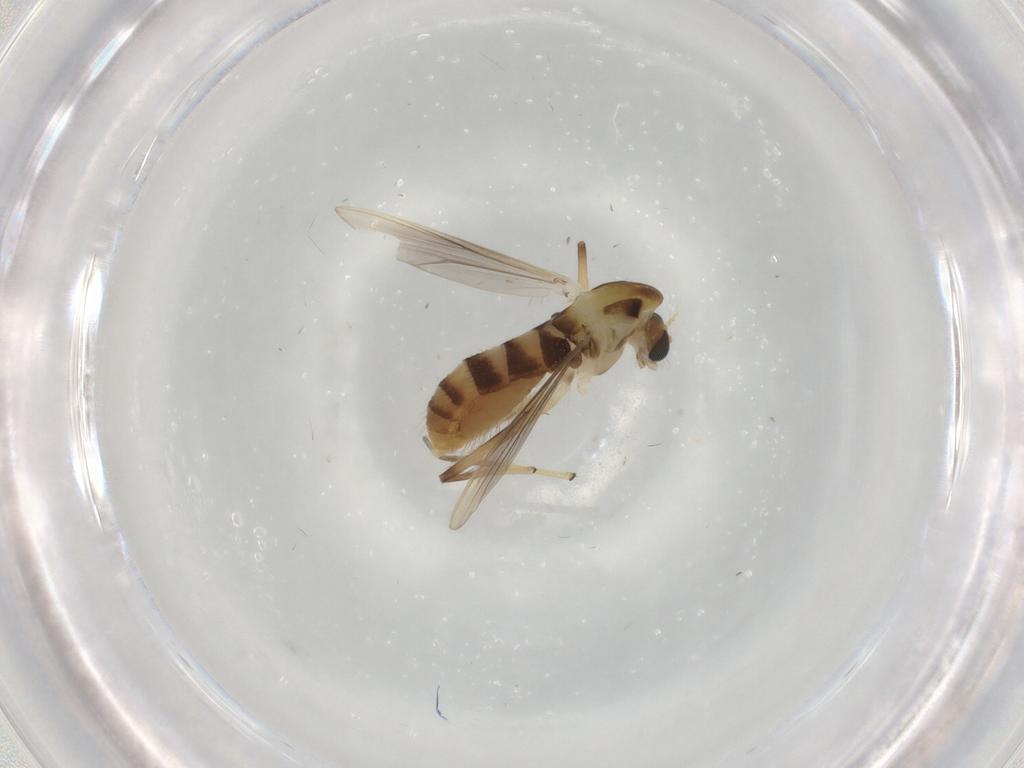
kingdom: Animalia
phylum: Arthropoda
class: Insecta
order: Diptera
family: Chironomidae
